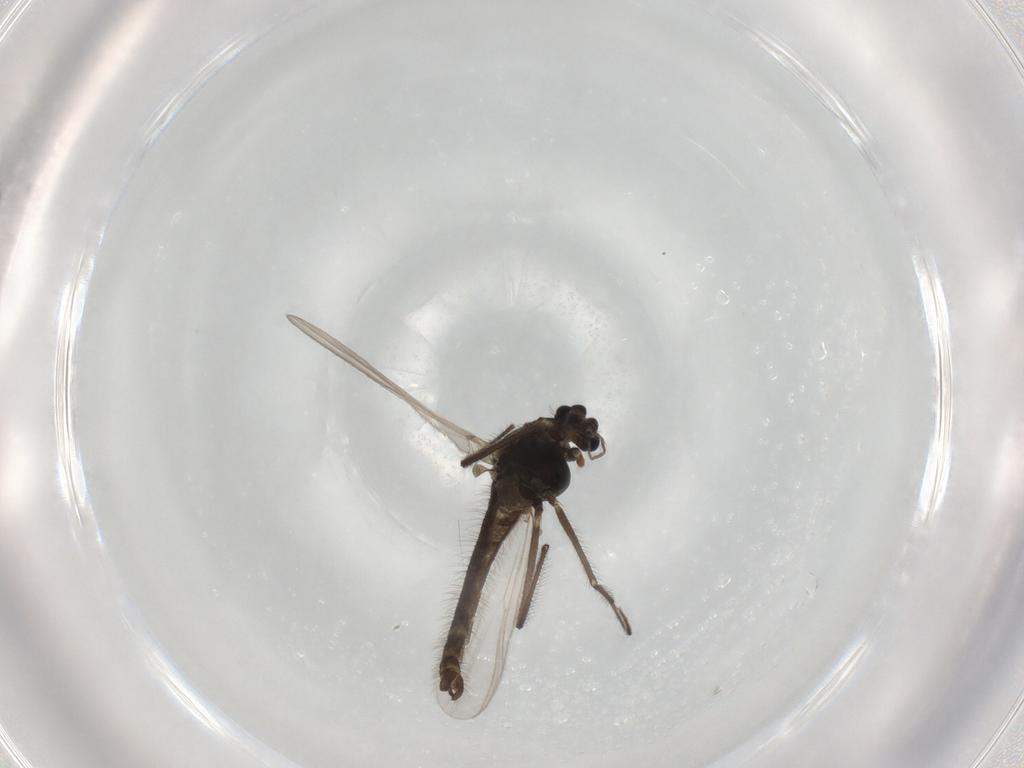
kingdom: Animalia
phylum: Arthropoda
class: Insecta
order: Diptera
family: Chironomidae
